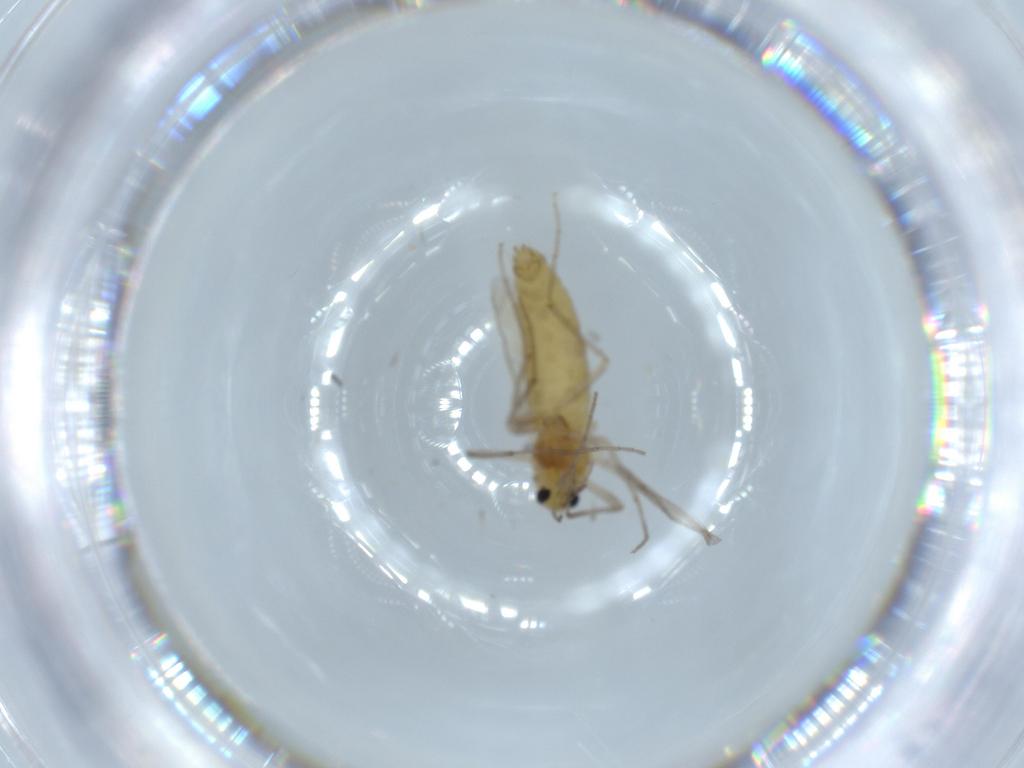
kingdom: Animalia
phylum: Arthropoda
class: Insecta
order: Diptera
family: Chironomidae
